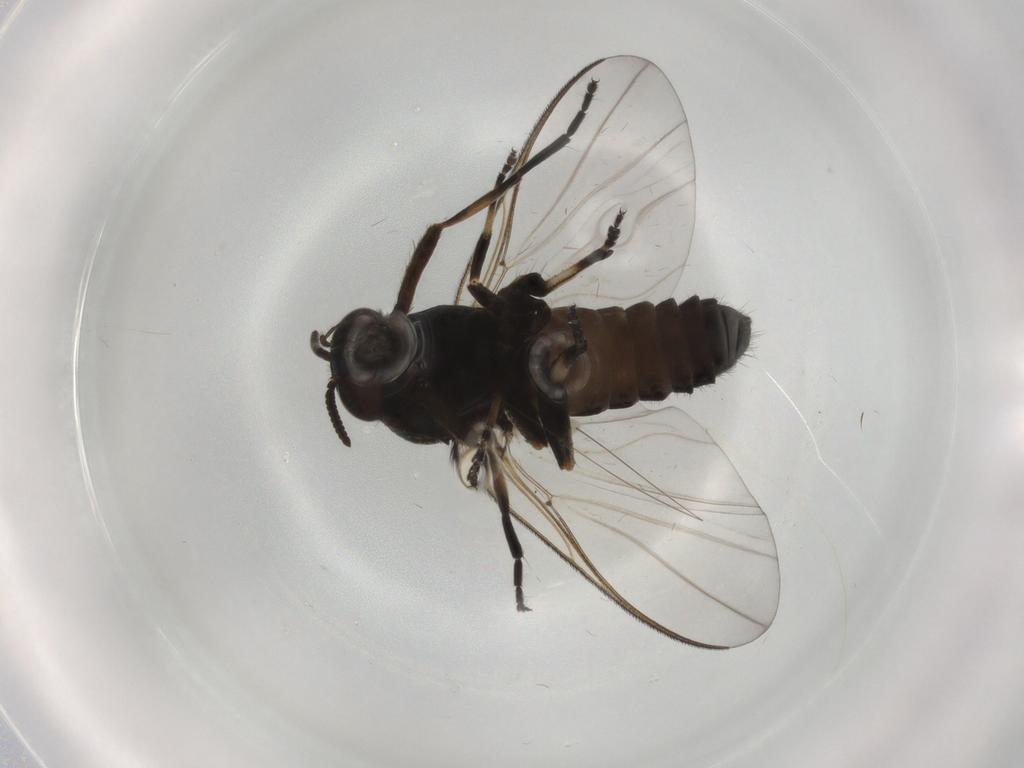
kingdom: Animalia
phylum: Arthropoda
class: Insecta
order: Diptera
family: Simuliidae
